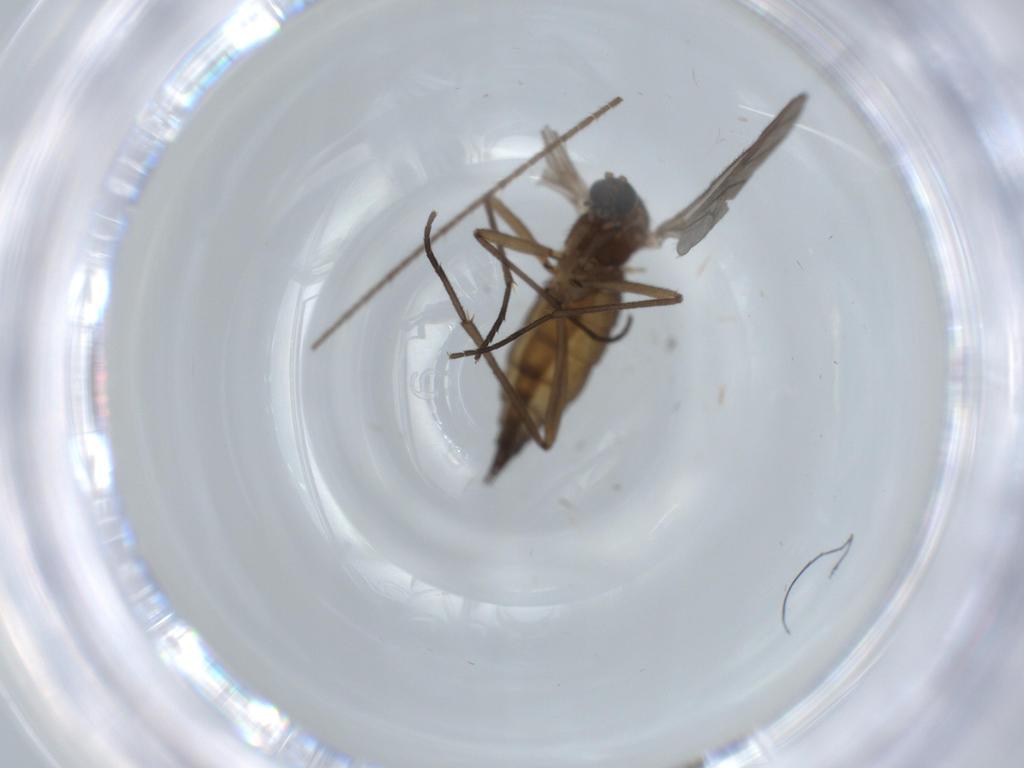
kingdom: Animalia
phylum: Arthropoda
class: Insecta
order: Diptera
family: Sciaridae
